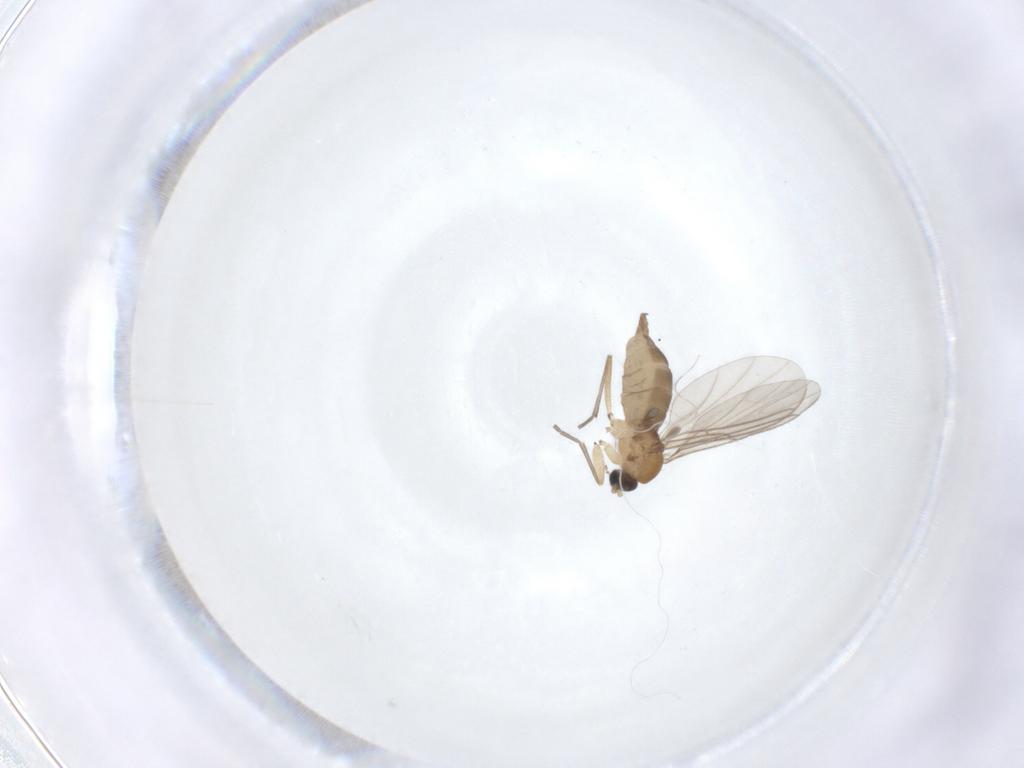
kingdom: Animalia
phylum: Arthropoda
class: Insecta
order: Diptera
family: Sciaridae
